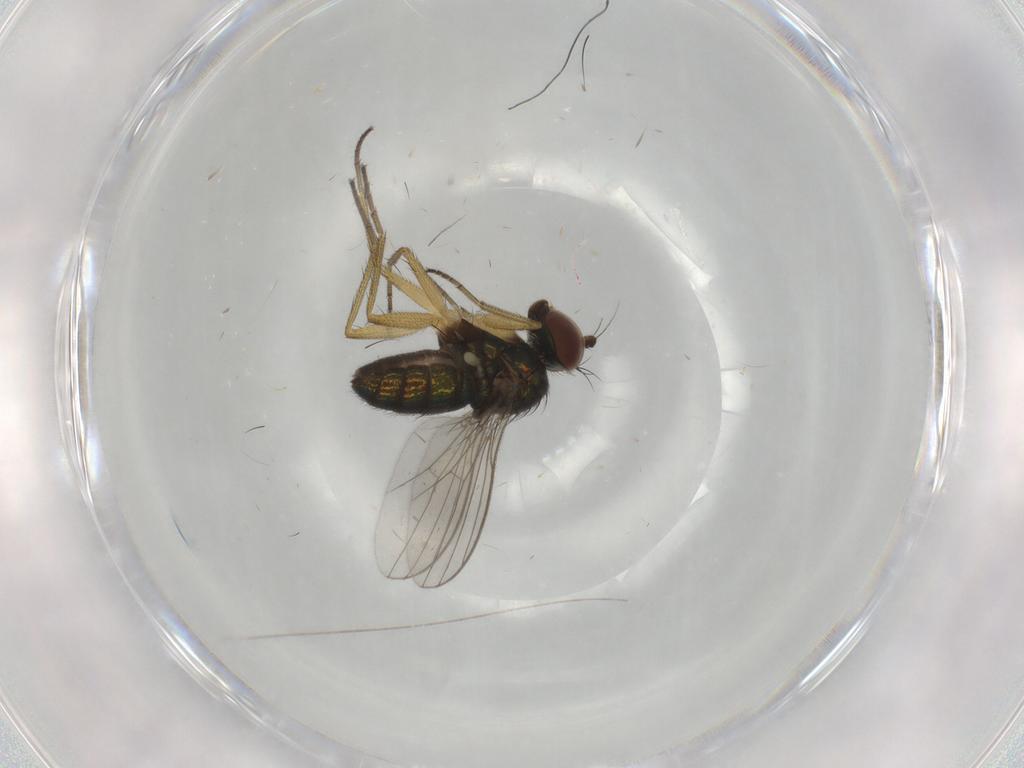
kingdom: Animalia
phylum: Arthropoda
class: Insecta
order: Diptera
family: Dolichopodidae
